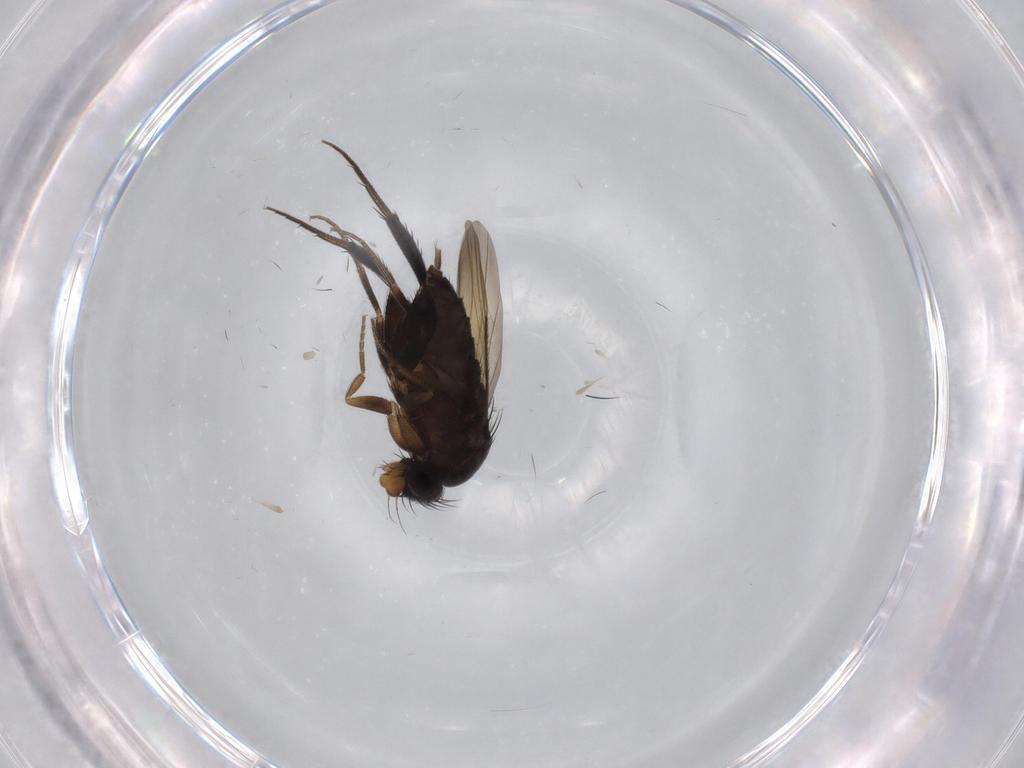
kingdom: Animalia
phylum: Arthropoda
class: Insecta
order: Diptera
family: Phoridae
